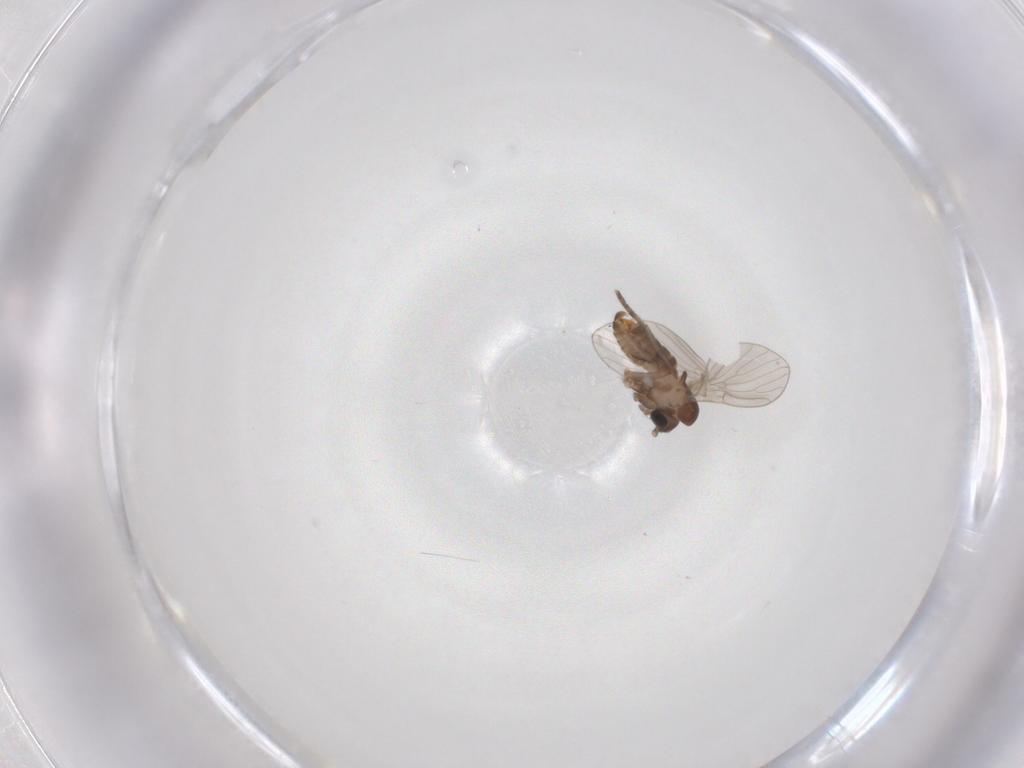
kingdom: Animalia
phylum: Arthropoda
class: Insecta
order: Diptera
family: Psychodidae
